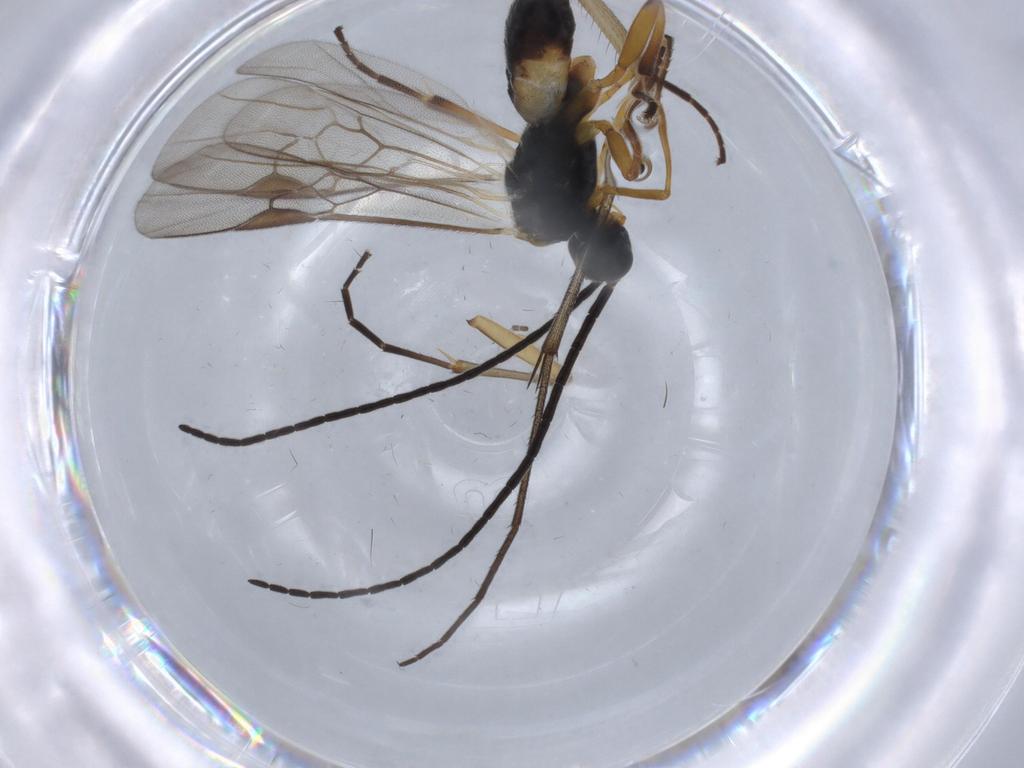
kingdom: Animalia
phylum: Arthropoda
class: Insecta
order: Hymenoptera
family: Braconidae
